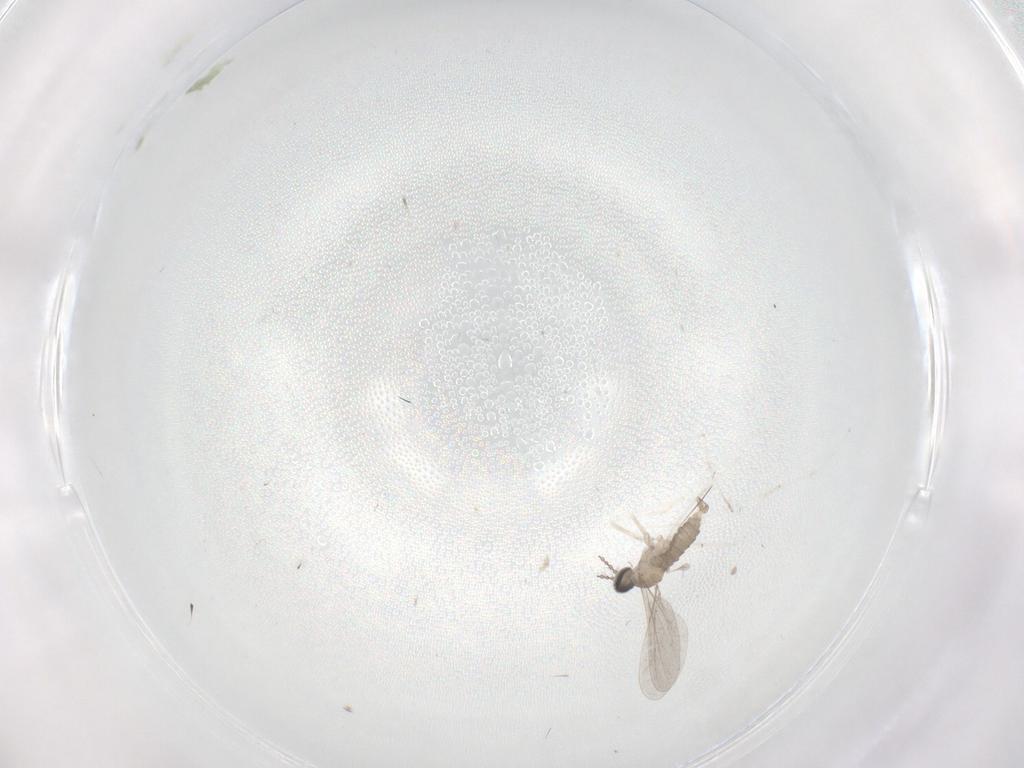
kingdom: Animalia
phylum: Arthropoda
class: Insecta
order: Diptera
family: Cecidomyiidae
